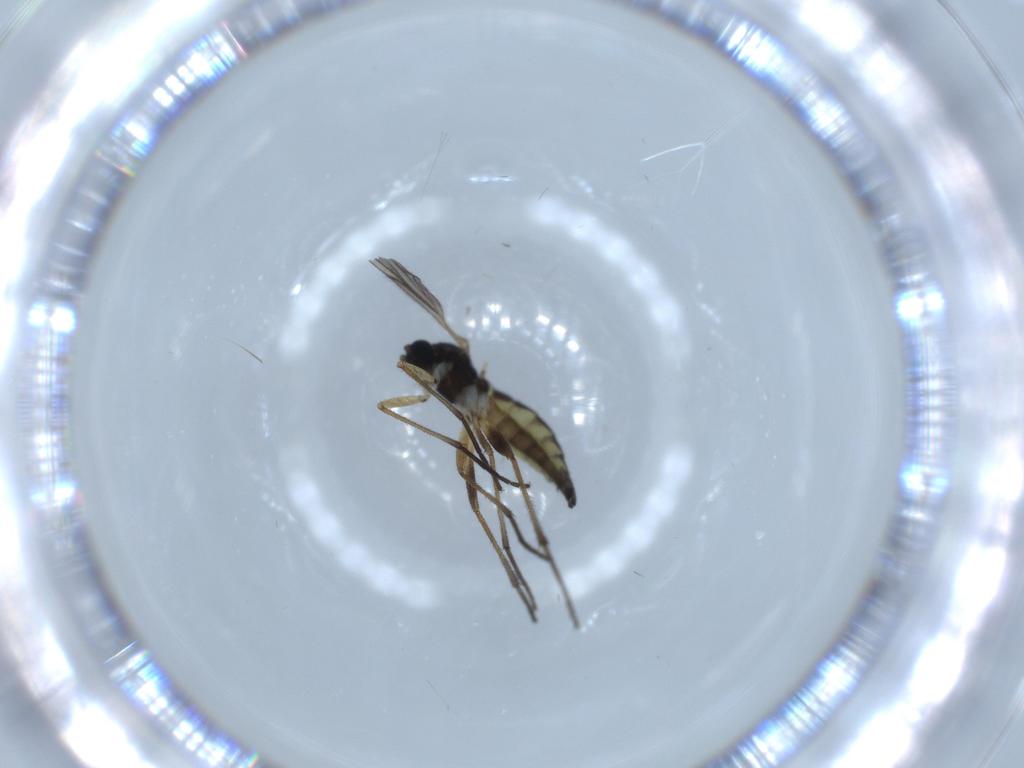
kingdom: Animalia
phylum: Arthropoda
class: Insecta
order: Diptera
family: Sciaridae
